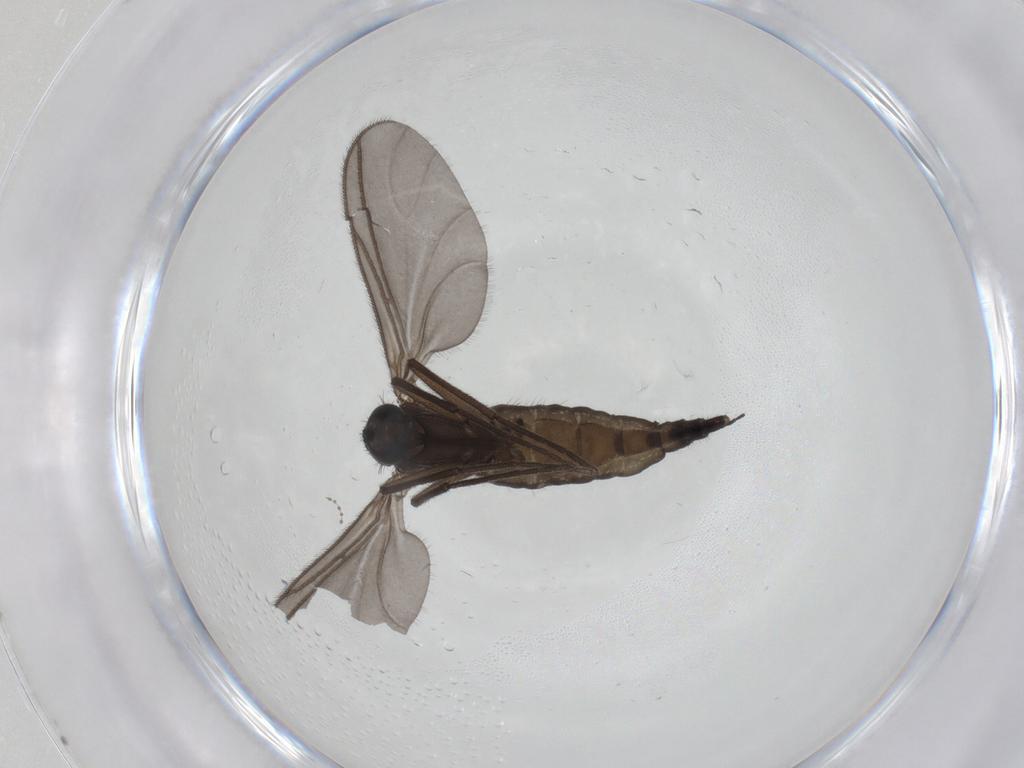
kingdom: Animalia
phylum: Arthropoda
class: Insecta
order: Diptera
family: Sciaridae
